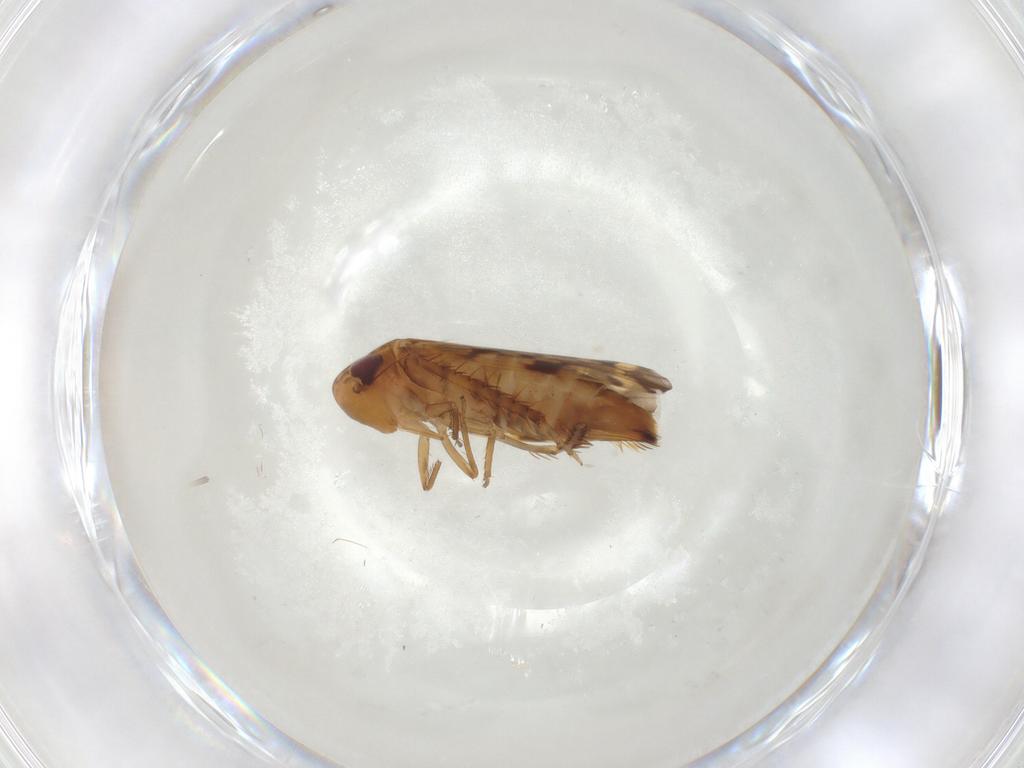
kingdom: Animalia
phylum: Arthropoda
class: Insecta
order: Hemiptera
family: Cicadellidae
